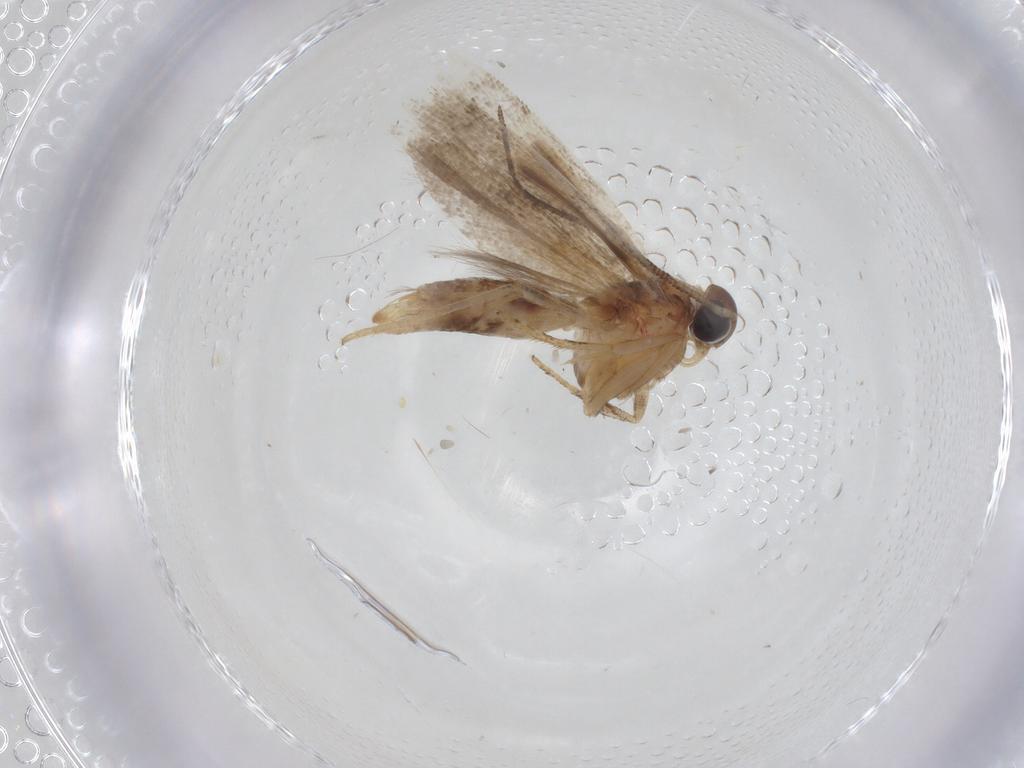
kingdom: Animalia
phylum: Arthropoda
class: Insecta
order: Lepidoptera
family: Gelechiidae
